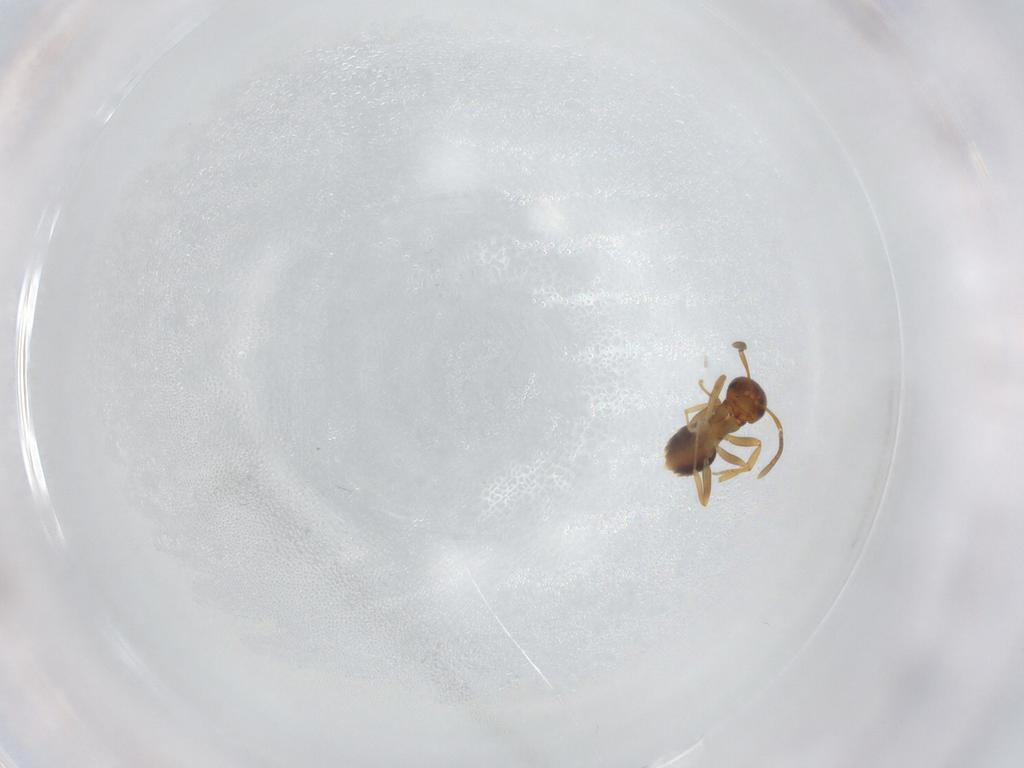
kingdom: Animalia
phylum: Arthropoda
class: Insecta
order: Hymenoptera
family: Formicidae
